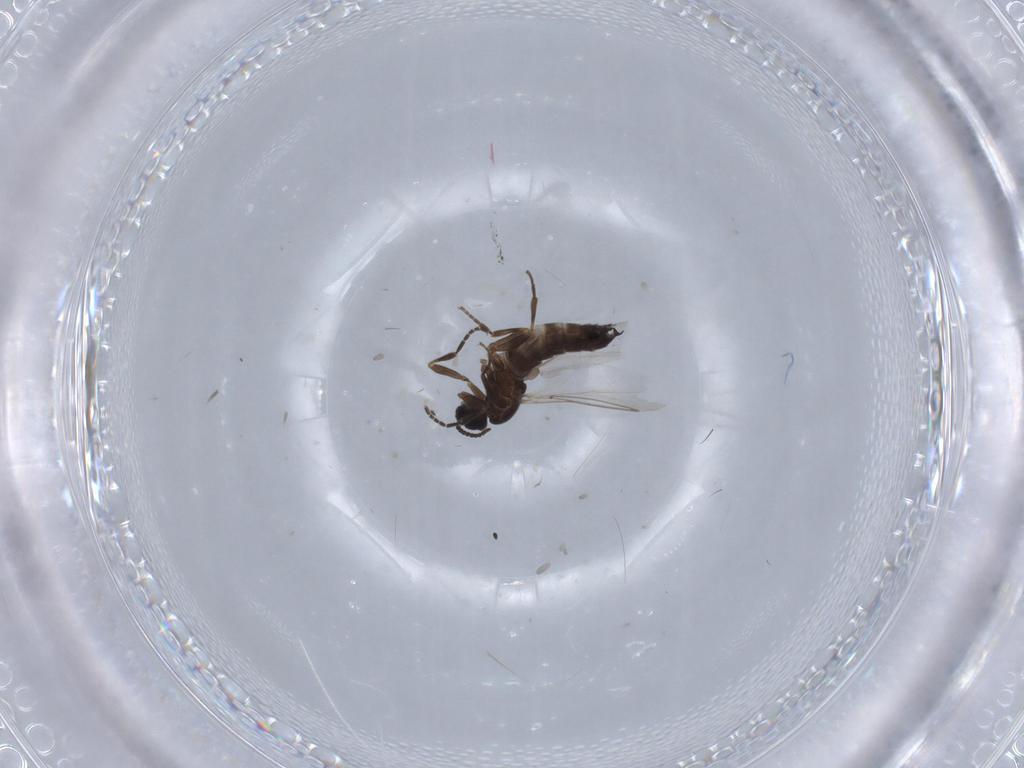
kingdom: Animalia
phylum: Arthropoda
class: Insecta
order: Diptera
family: Scatopsidae
